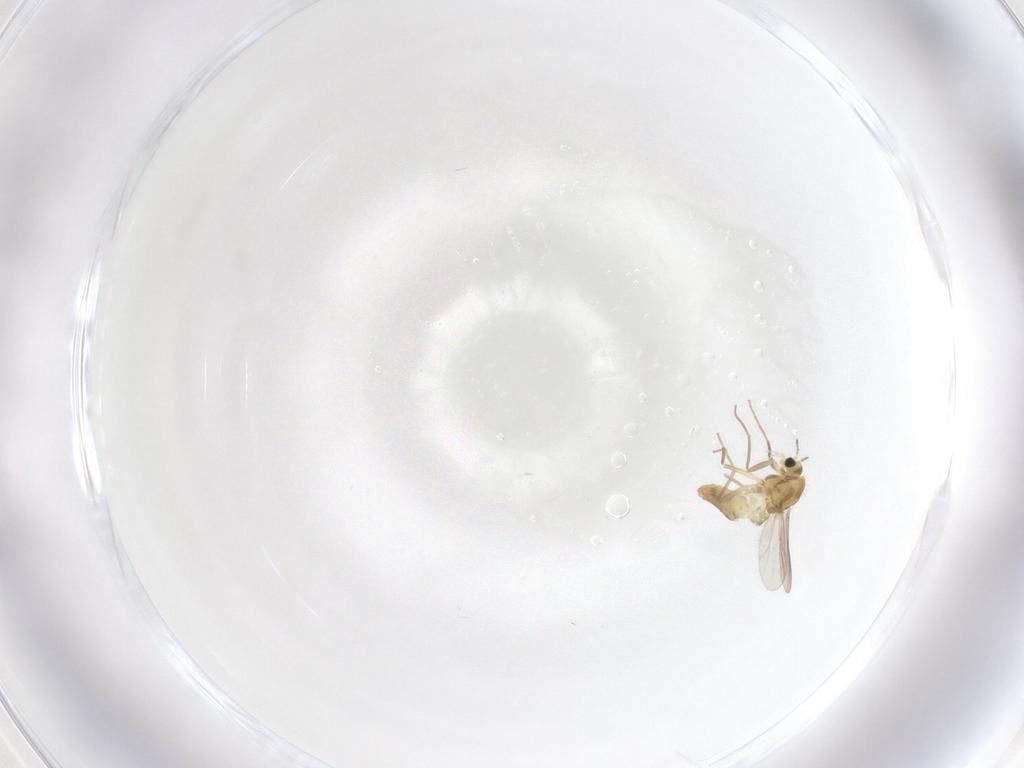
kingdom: Animalia
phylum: Arthropoda
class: Insecta
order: Diptera
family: Chironomidae
